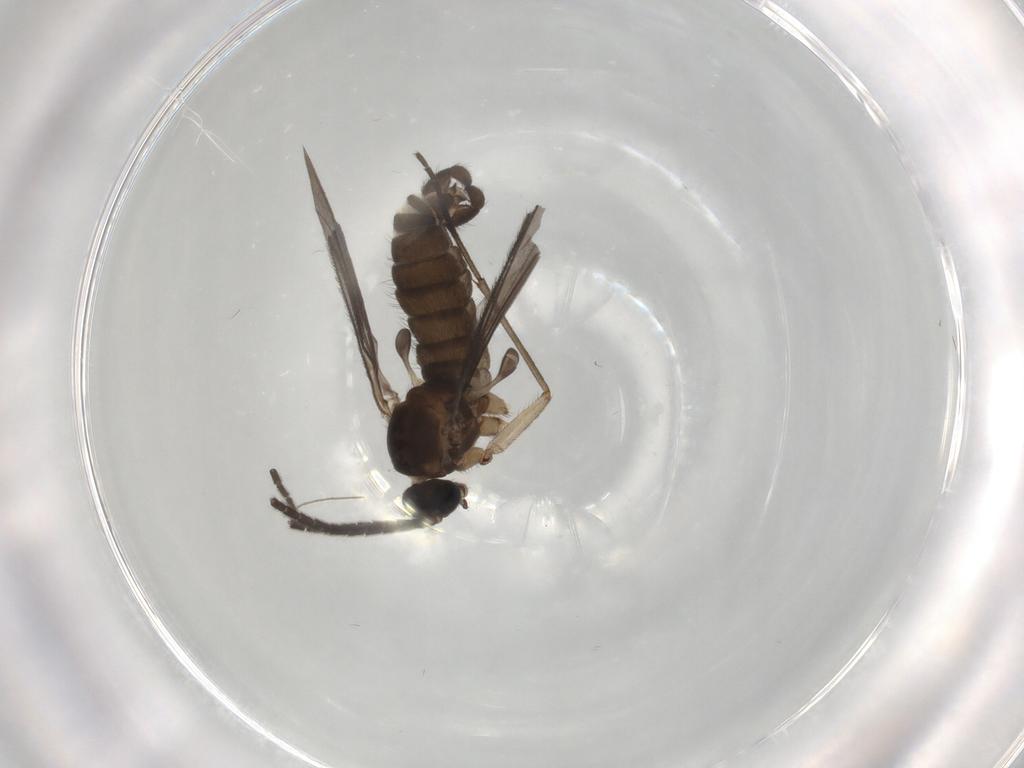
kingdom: Animalia
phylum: Arthropoda
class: Insecta
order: Diptera
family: Sciaridae
